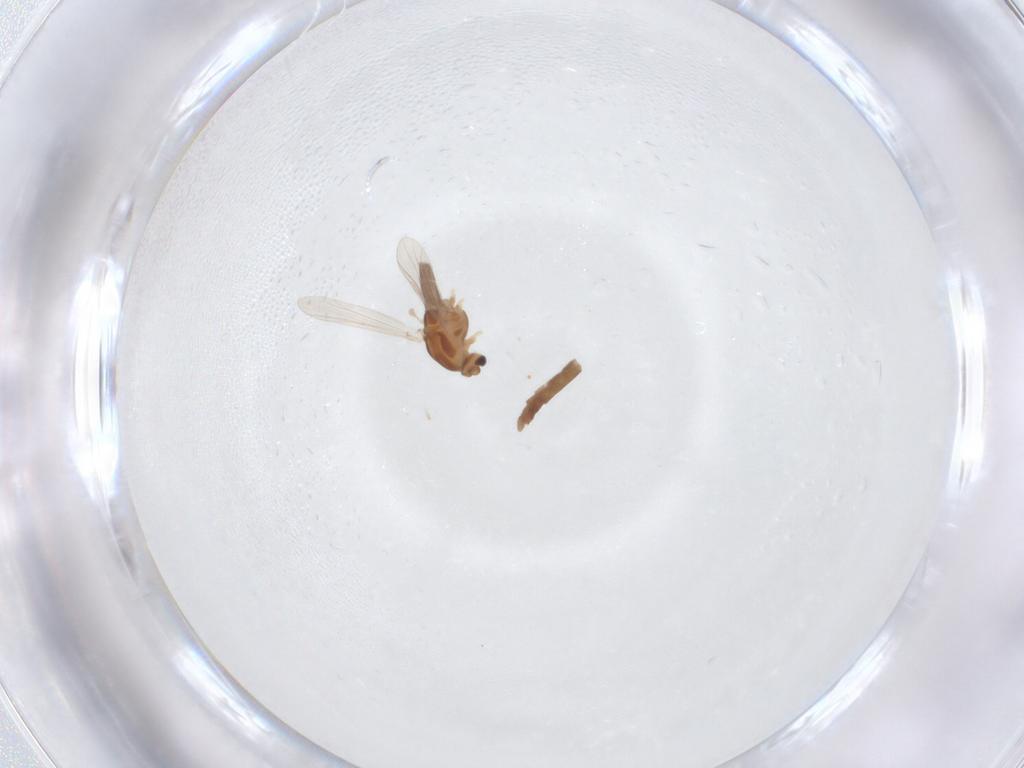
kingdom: Animalia
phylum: Arthropoda
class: Insecta
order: Diptera
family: Chironomidae
